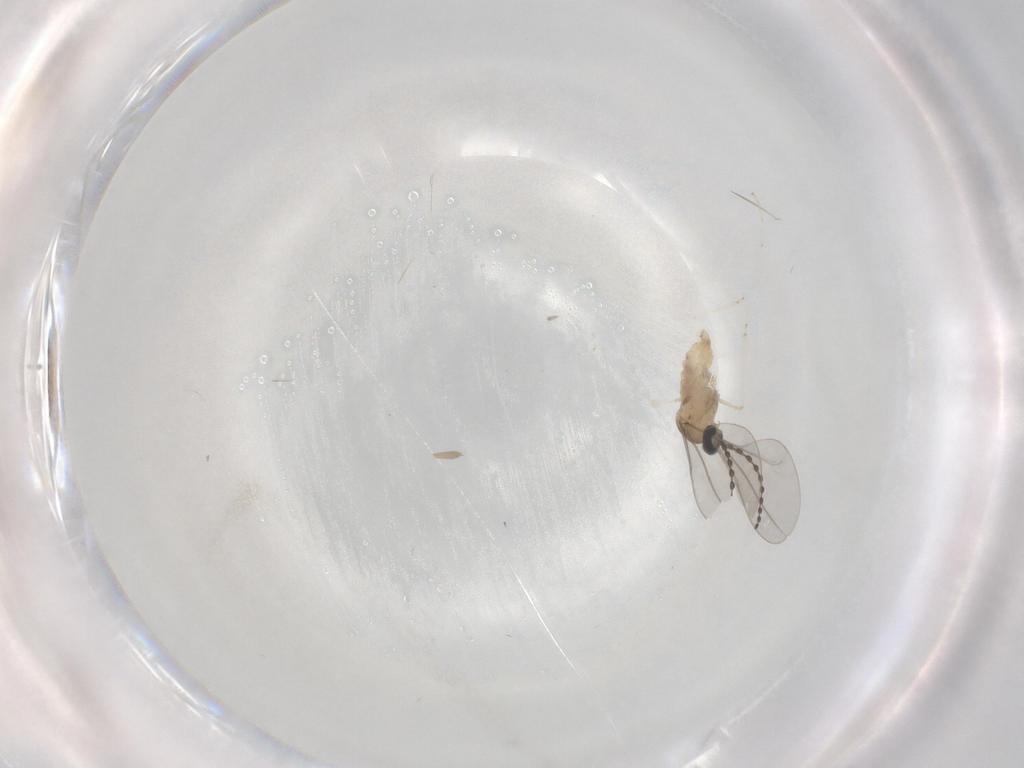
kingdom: Animalia
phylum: Arthropoda
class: Insecta
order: Diptera
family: Cecidomyiidae
